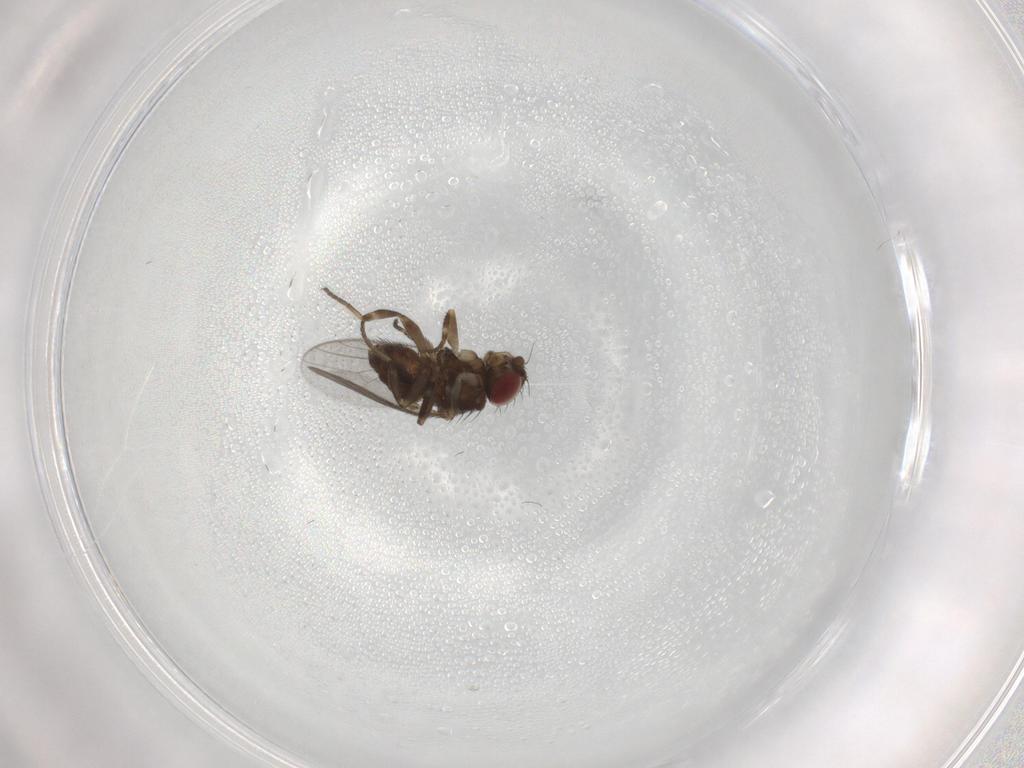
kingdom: Animalia
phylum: Arthropoda
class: Insecta
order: Diptera
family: Chloropidae
